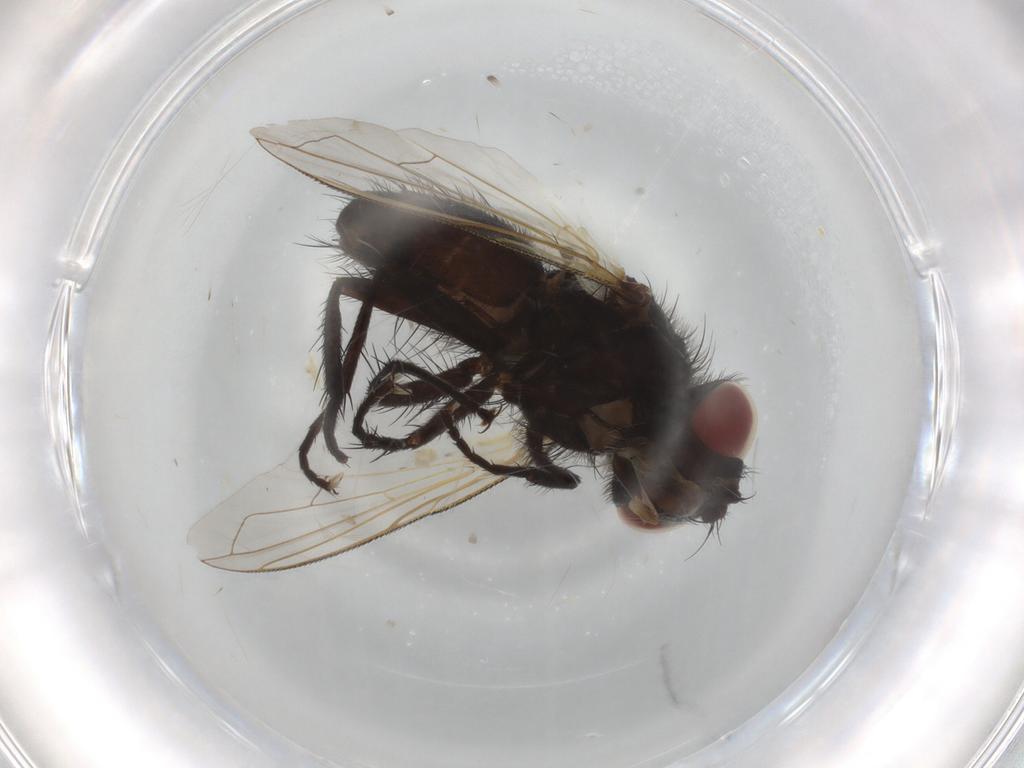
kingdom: Animalia
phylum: Arthropoda
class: Insecta
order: Diptera
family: Tachinidae
